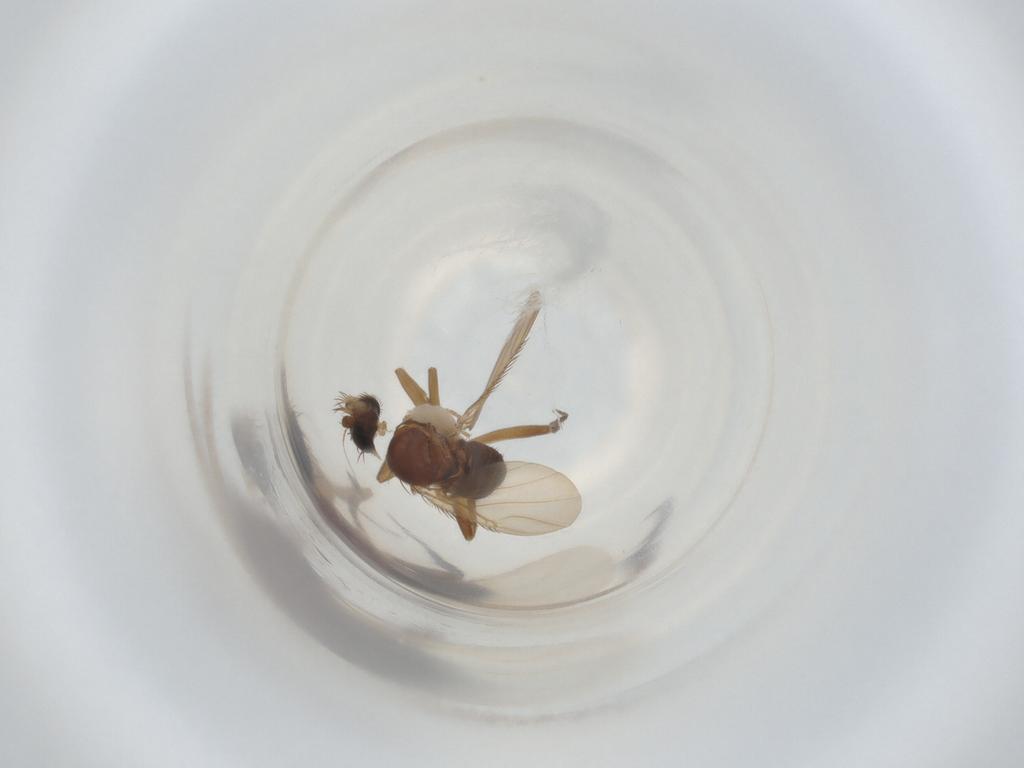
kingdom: Animalia
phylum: Arthropoda
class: Insecta
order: Diptera
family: Phoridae
